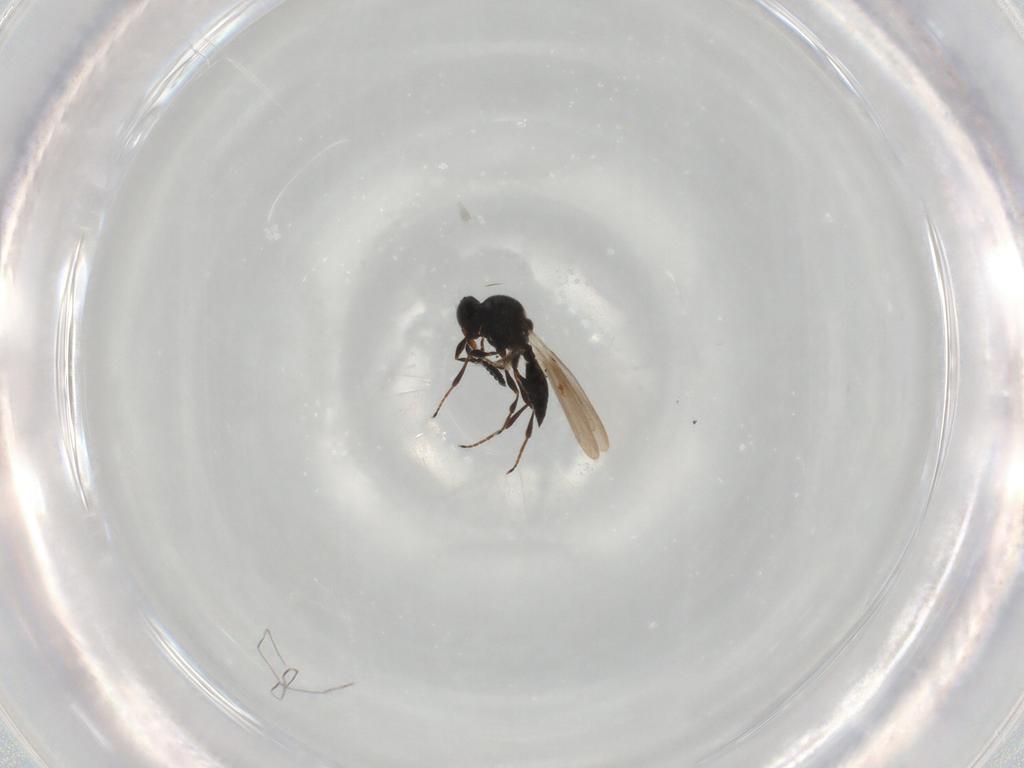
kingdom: Animalia
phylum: Arthropoda
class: Insecta
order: Hymenoptera
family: Platygastridae
